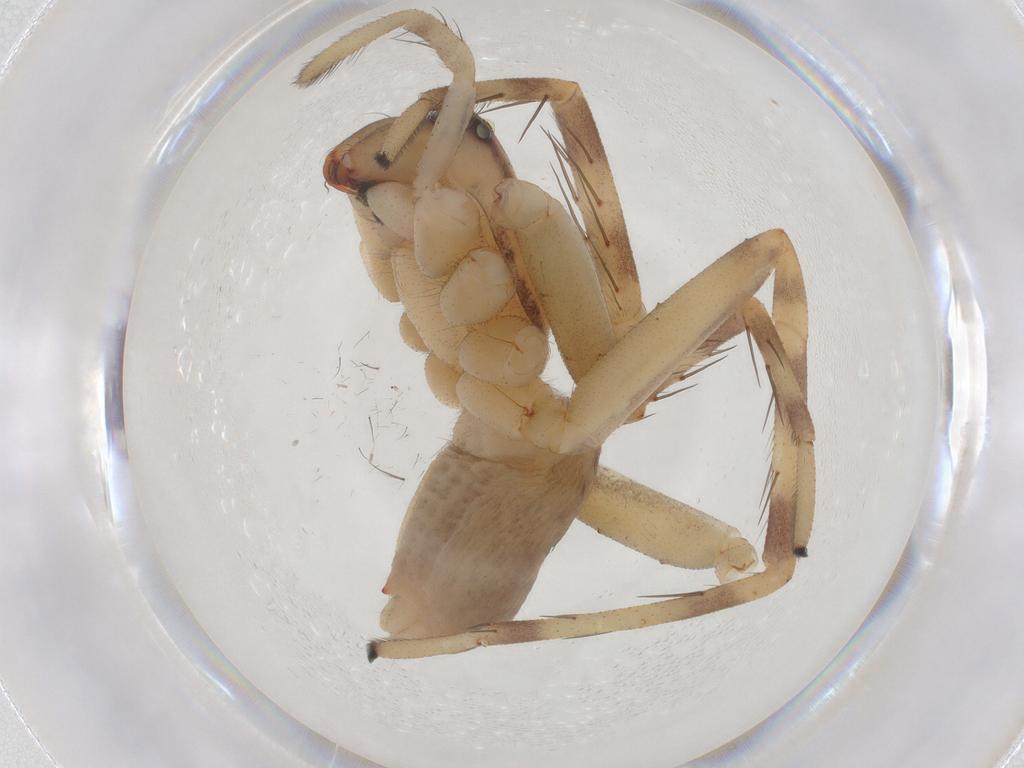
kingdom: Animalia
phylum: Arthropoda
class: Arachnida
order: Araneae
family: Corinnidae
